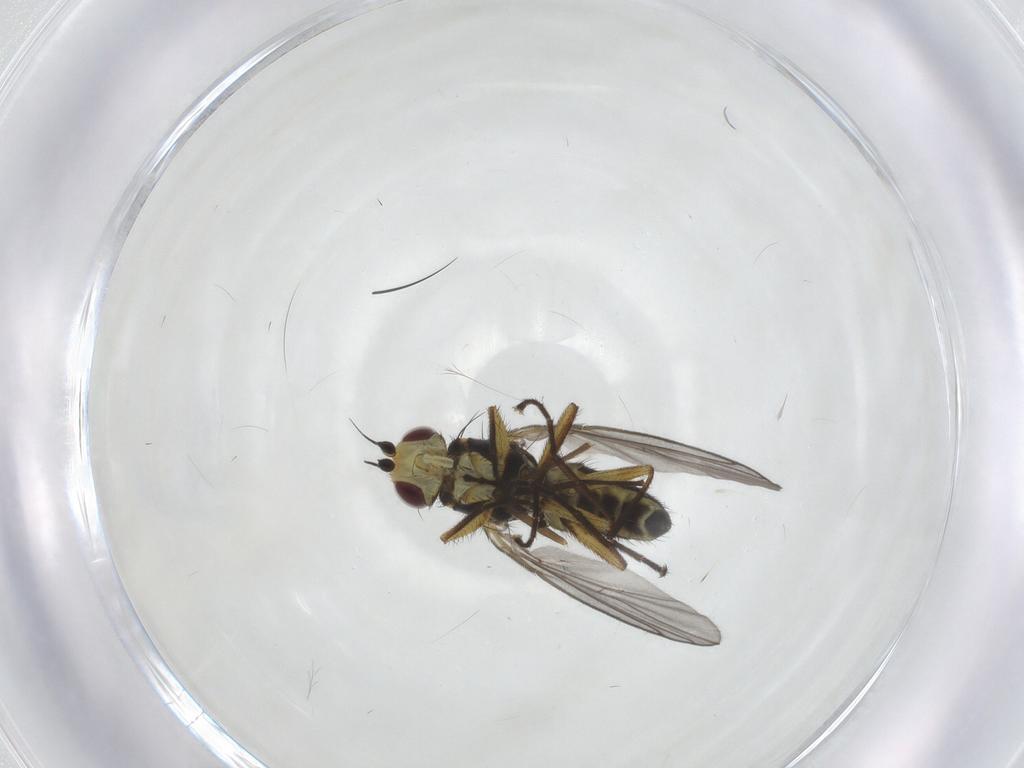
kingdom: Animalia
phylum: Arthropoda
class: Insecta
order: Diptera
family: Agromyzidae
